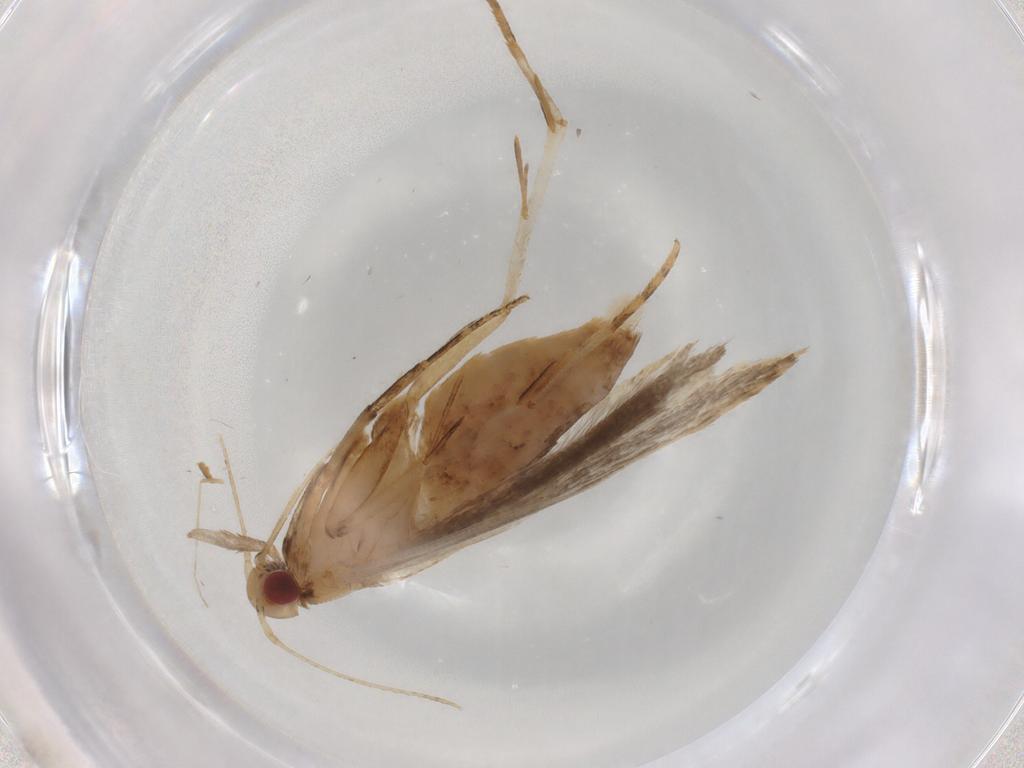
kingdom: Animalia
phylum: Arthropoda
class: Insecta
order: Lepidoptera
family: Gelechiidae
